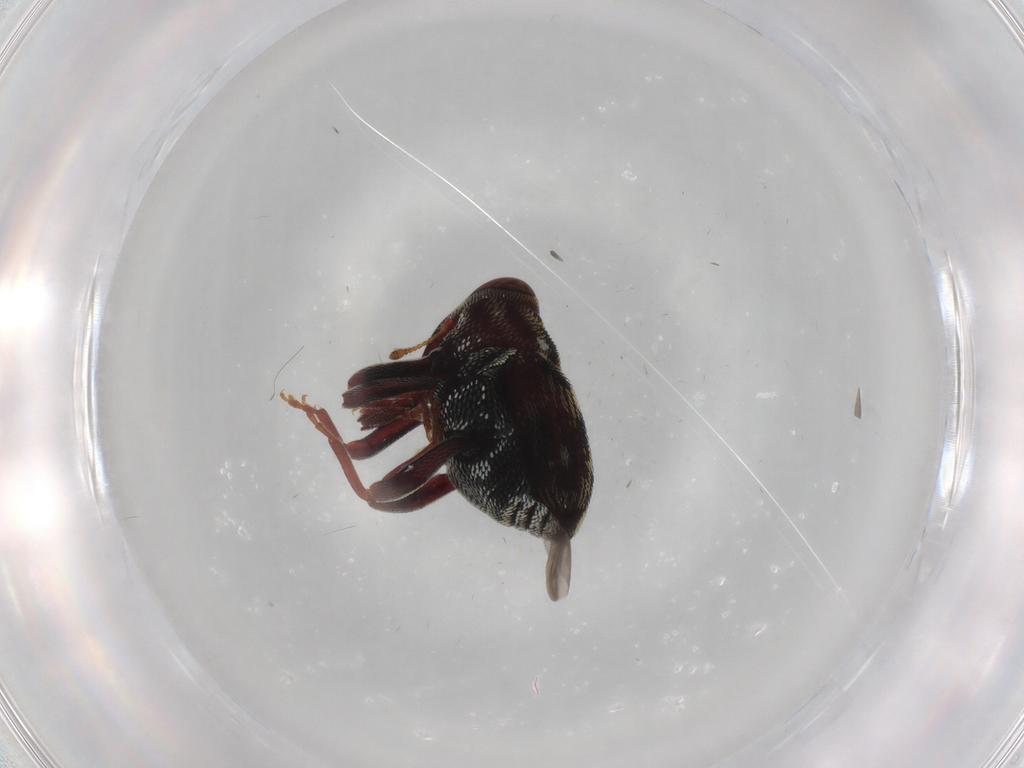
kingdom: Animalia
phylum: Arthropoda
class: Insecta
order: Coleoptera
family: Curculionidae
